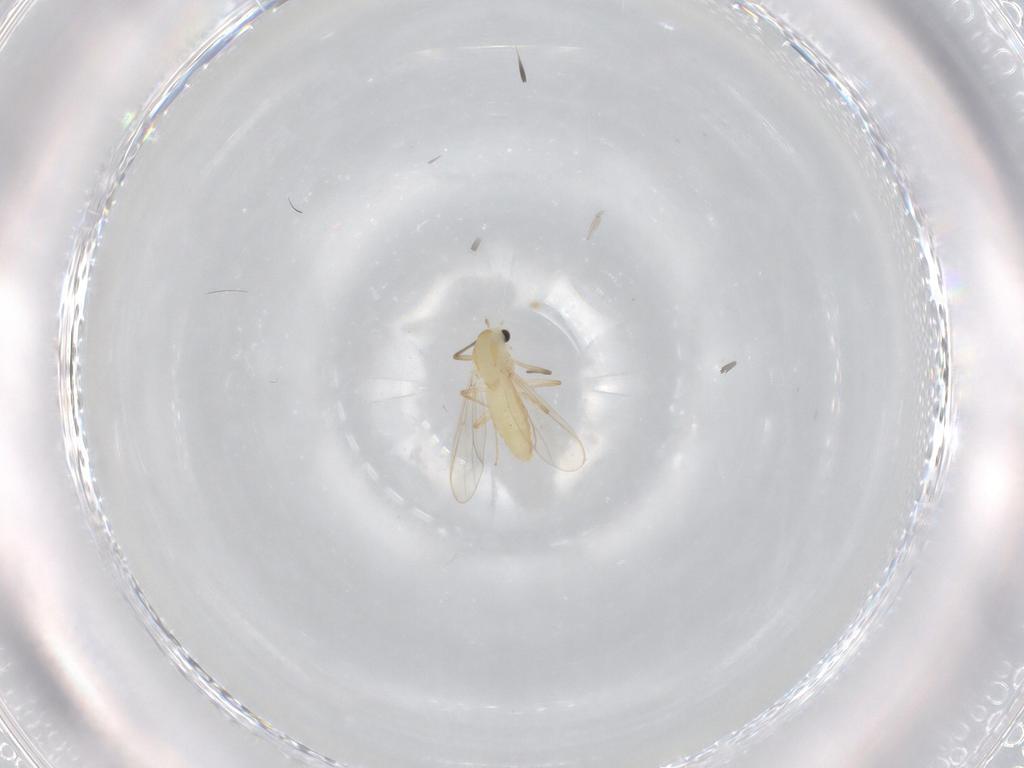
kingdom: Animalia
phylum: Arthropoda
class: Insecta
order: Diptera
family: Chironomidae
